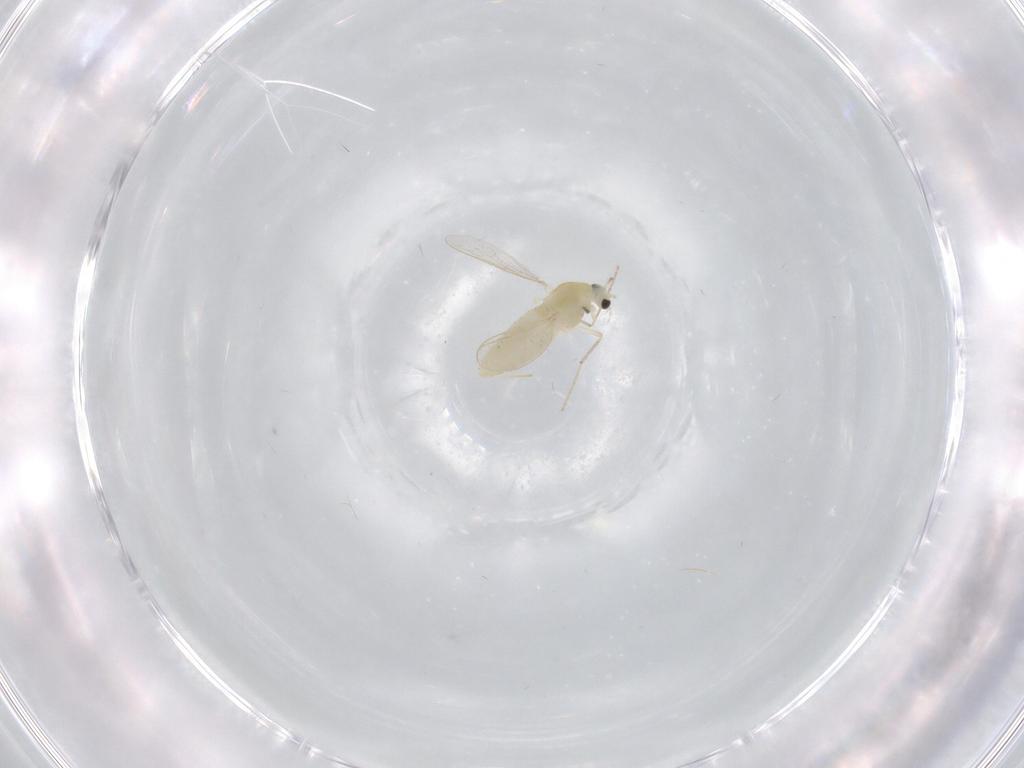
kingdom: Animalia
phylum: Arthropoda
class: Insecta
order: Diptera
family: Chironomidae
